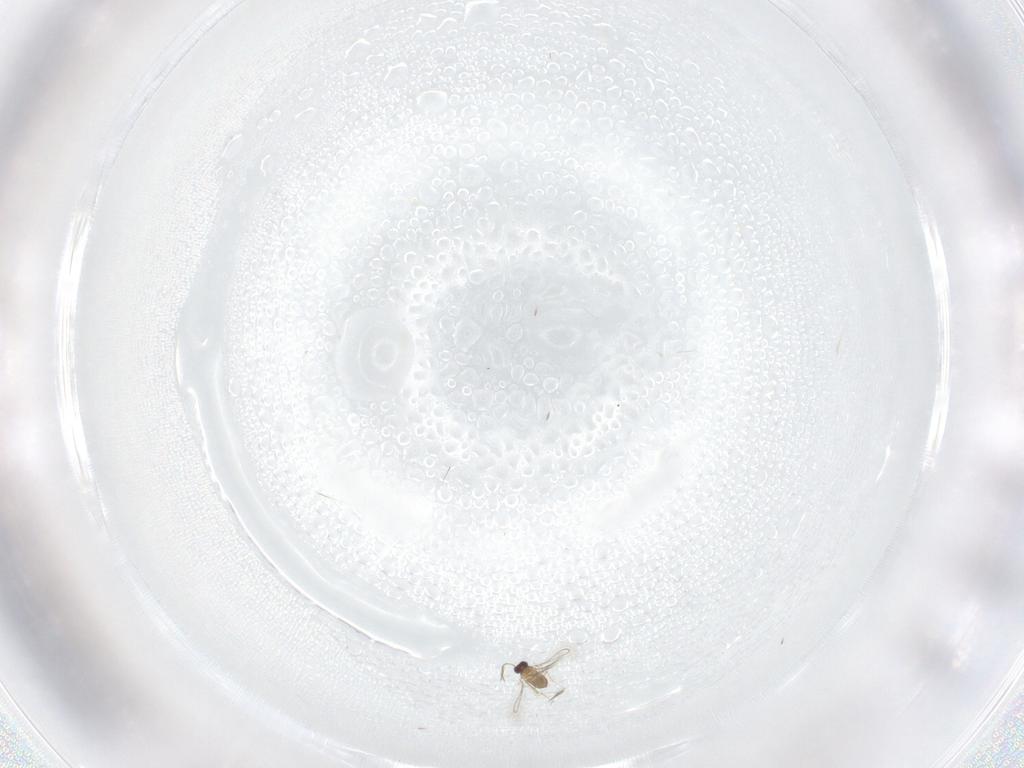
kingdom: Animalia
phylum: Arthropoda
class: Insecta
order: Hymenoptera
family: Mymaridae
